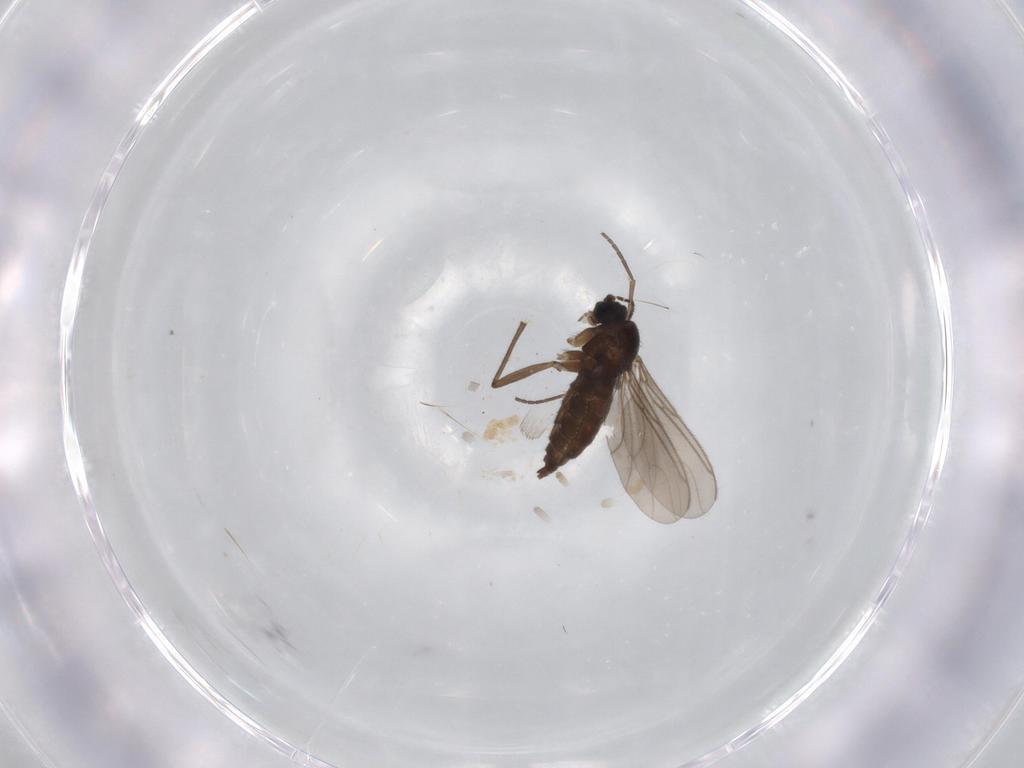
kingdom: Animalia
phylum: Arthropoda
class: Insecta
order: Diptera
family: Sciaridae
